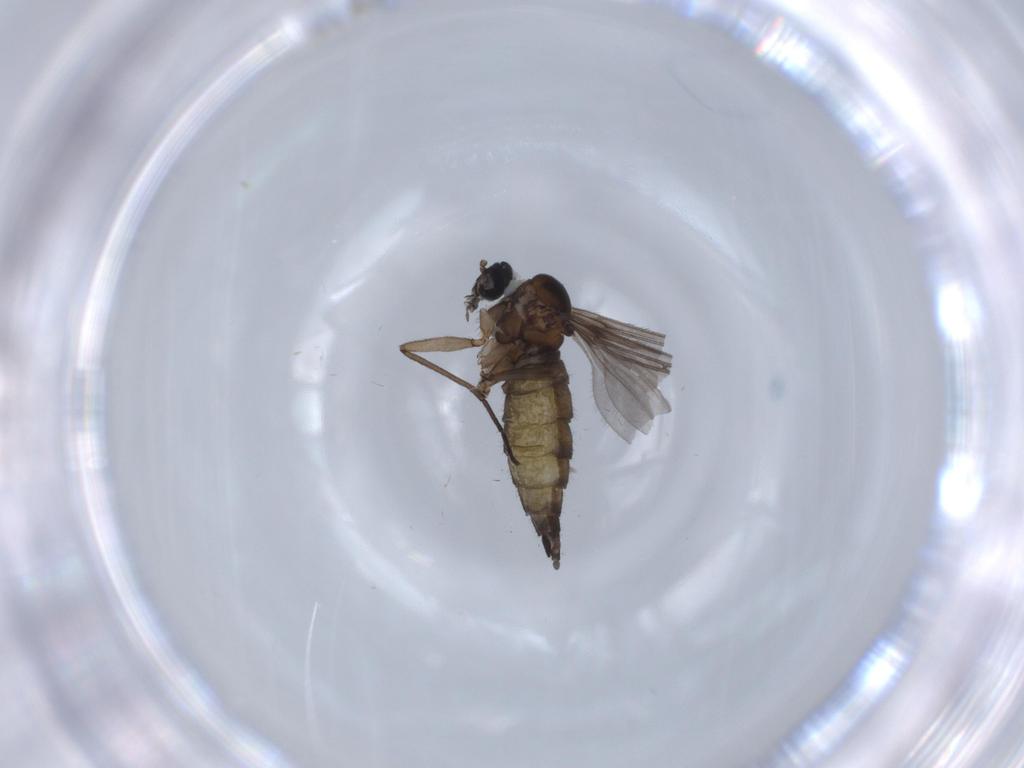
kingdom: Animalia
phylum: Arthropoda
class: Insecta
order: Diptera
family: Sciaridae
